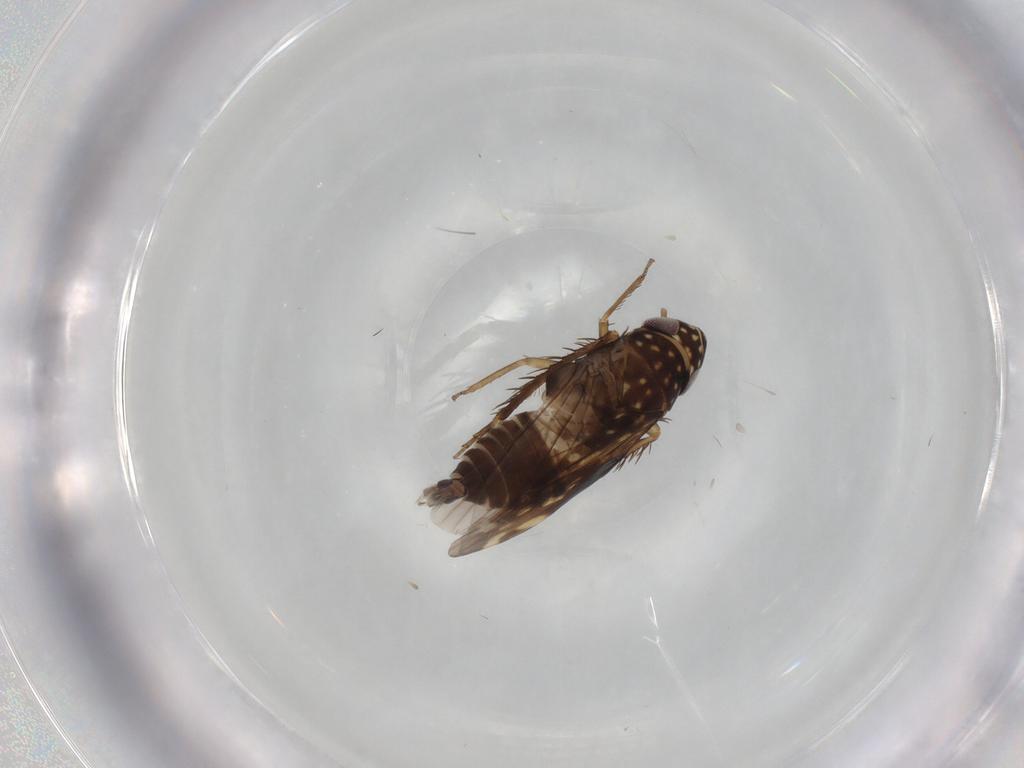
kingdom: Animalia
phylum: Arthropoda
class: Insecta
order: Hemiptera
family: Cicadellidae
